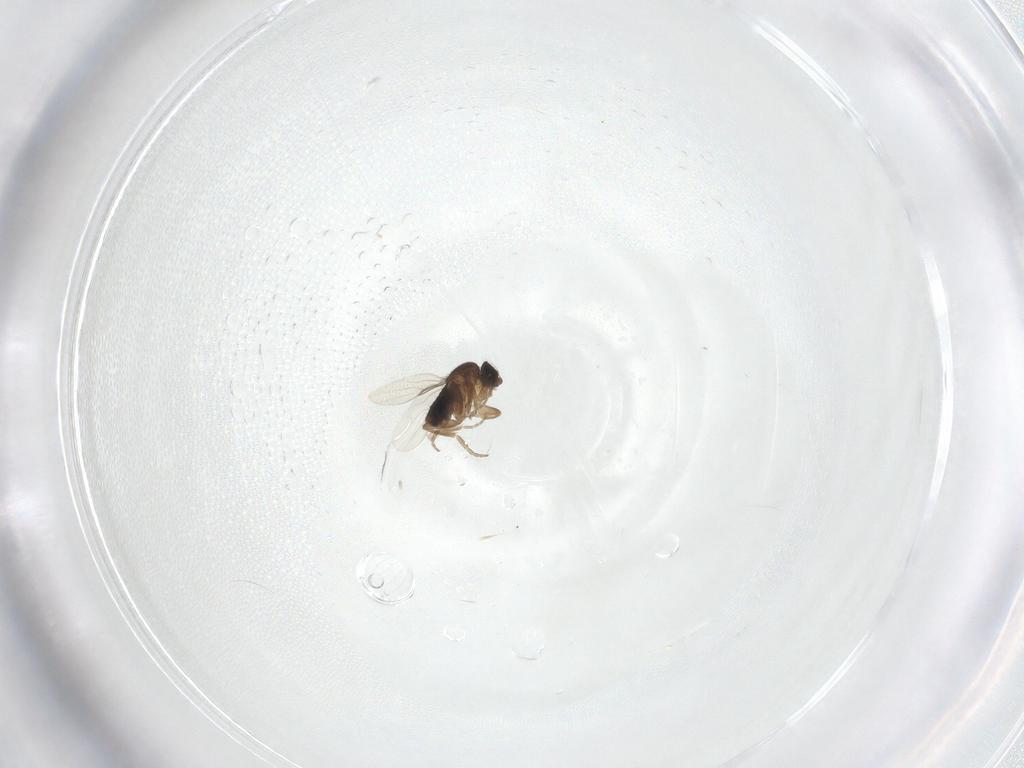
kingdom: Animalia
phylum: Arthropoda
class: Insecta
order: Diptera
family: Phoridae
